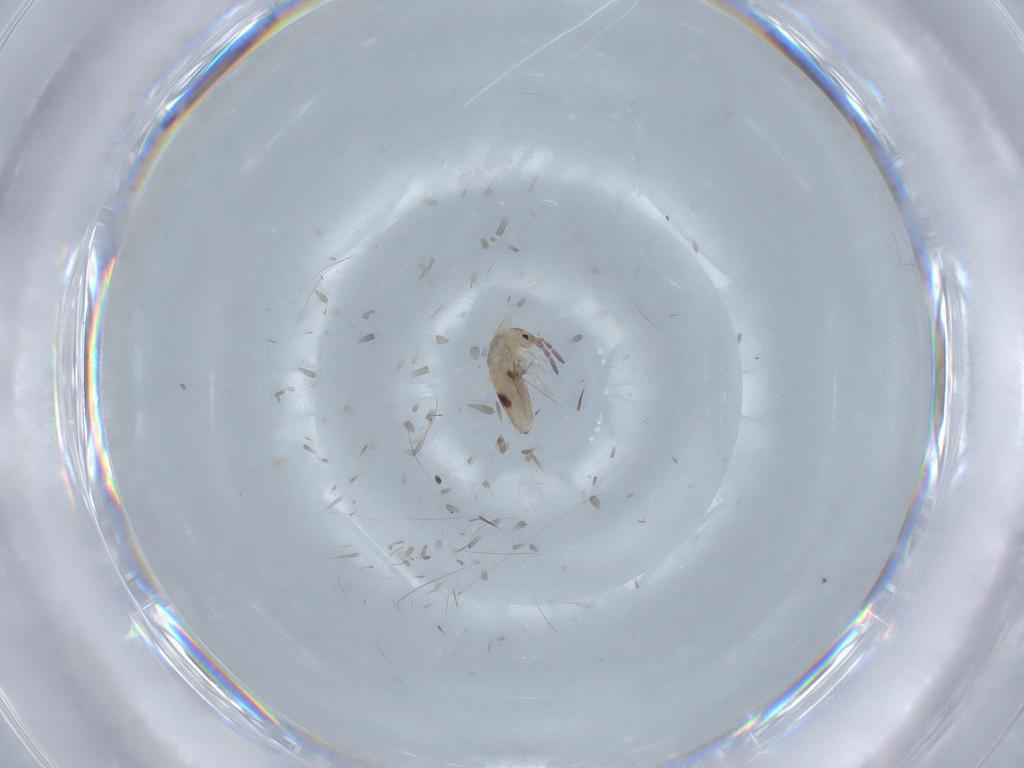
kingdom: Animalia
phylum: Arthropoda
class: Collembola
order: Entomobryomorpha
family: Entomobryidae
